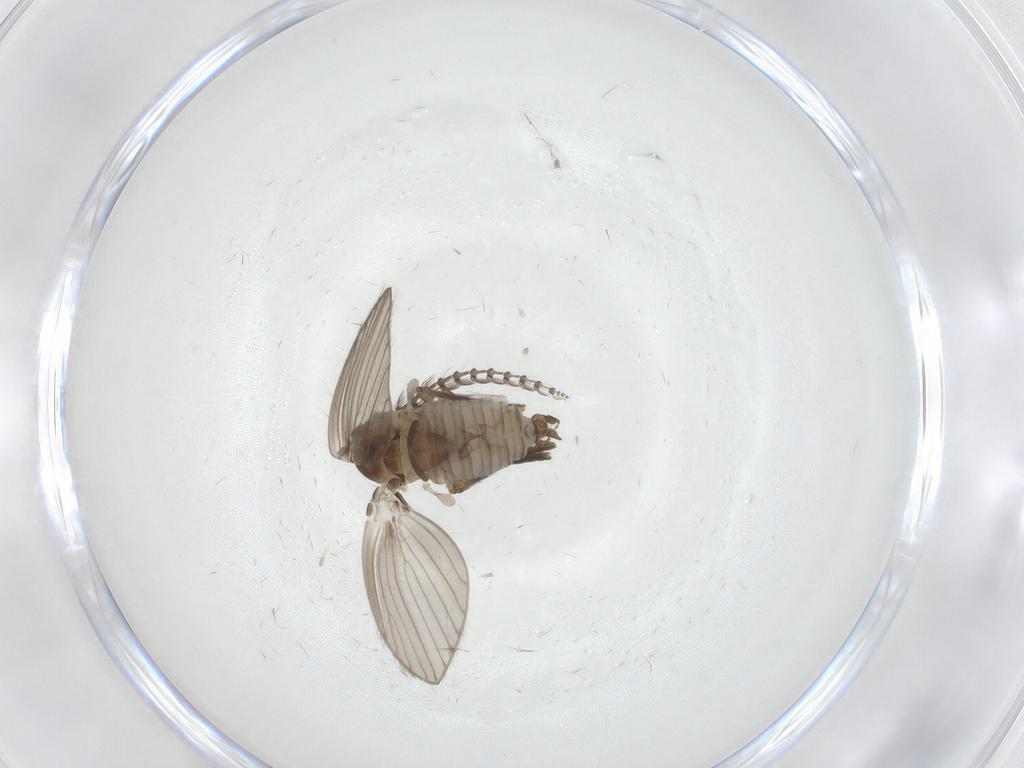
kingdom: Animalia
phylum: Arthropoda
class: Insecta
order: Diptera
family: Psychodidae
